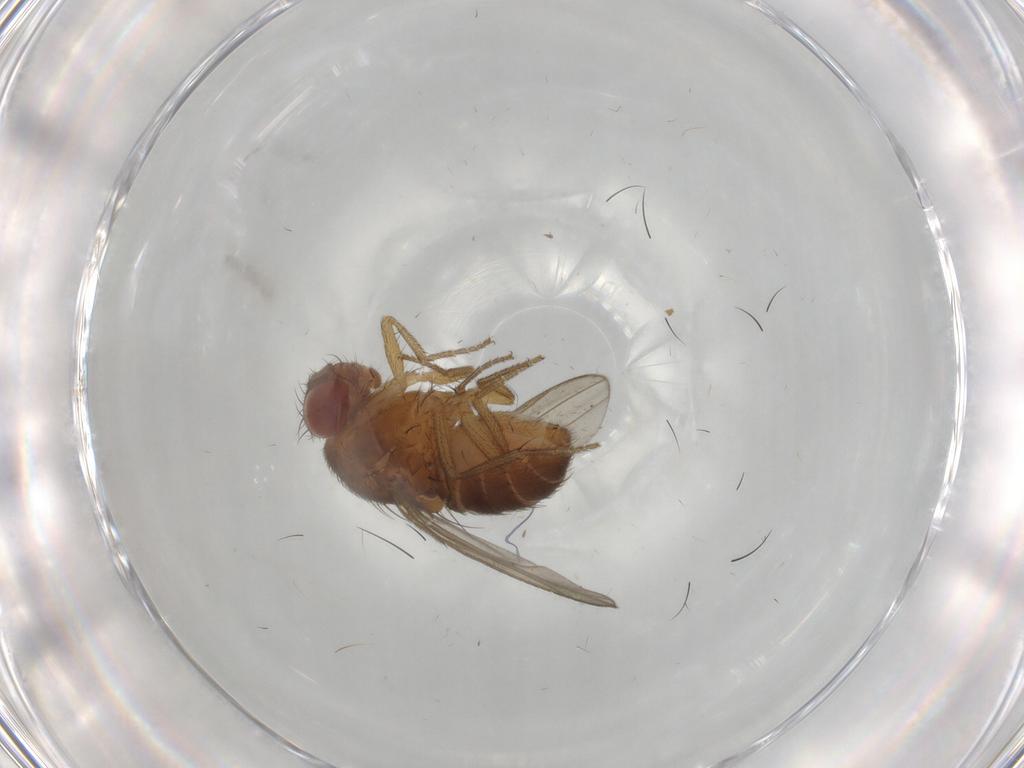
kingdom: Animalia
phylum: Arthropoda
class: Insecta
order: Diptera
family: Drosophilidae
